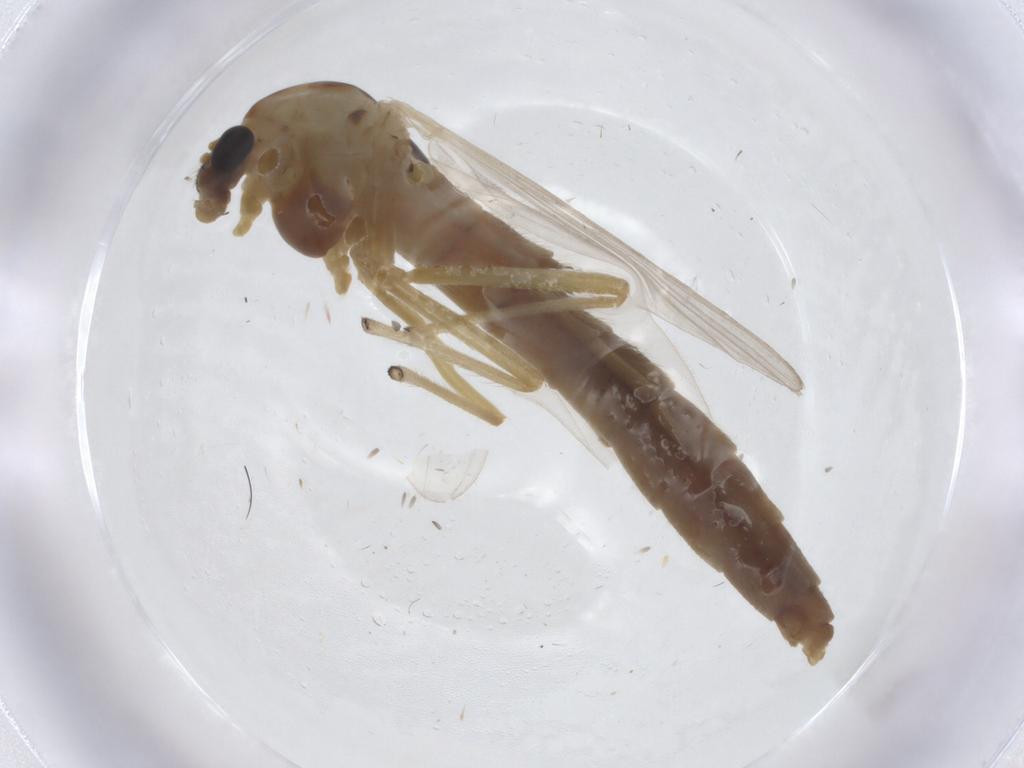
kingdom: Animalia
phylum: Arthropoda
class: Insecta
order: Diptera
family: Chironomidae
